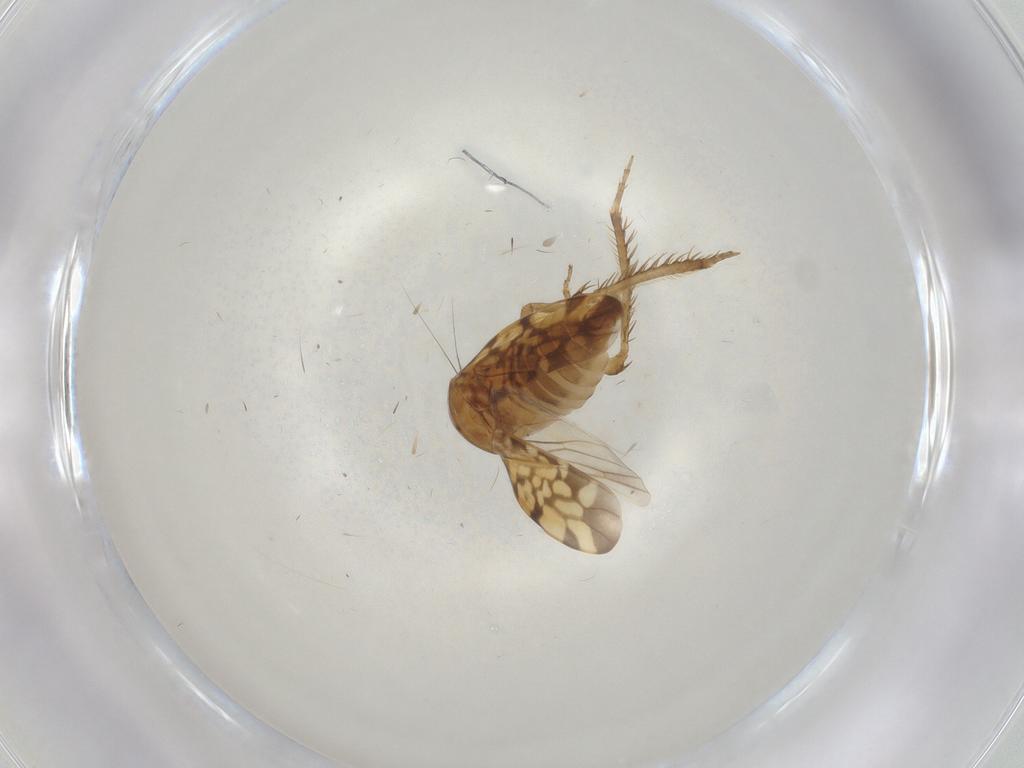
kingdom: Animalia
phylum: Arthropoda
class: Insecta
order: Hemiptera
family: Cicadellidae
